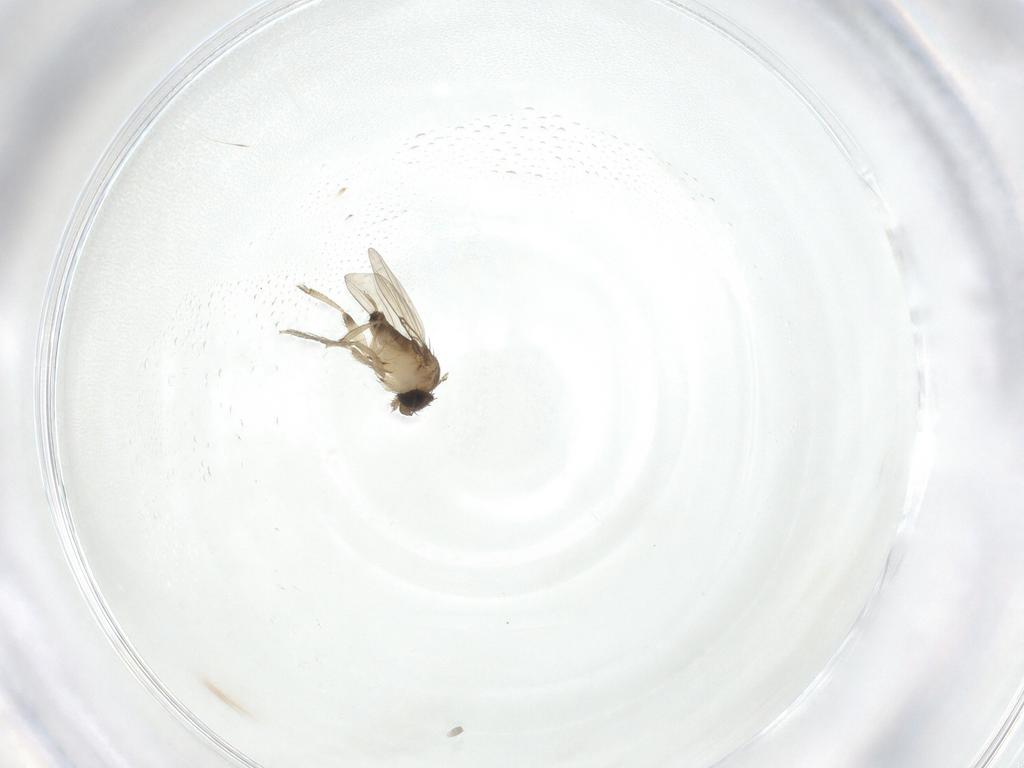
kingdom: Animalia
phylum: Arthropoda
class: Insecta
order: Diptera
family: Phoridae
